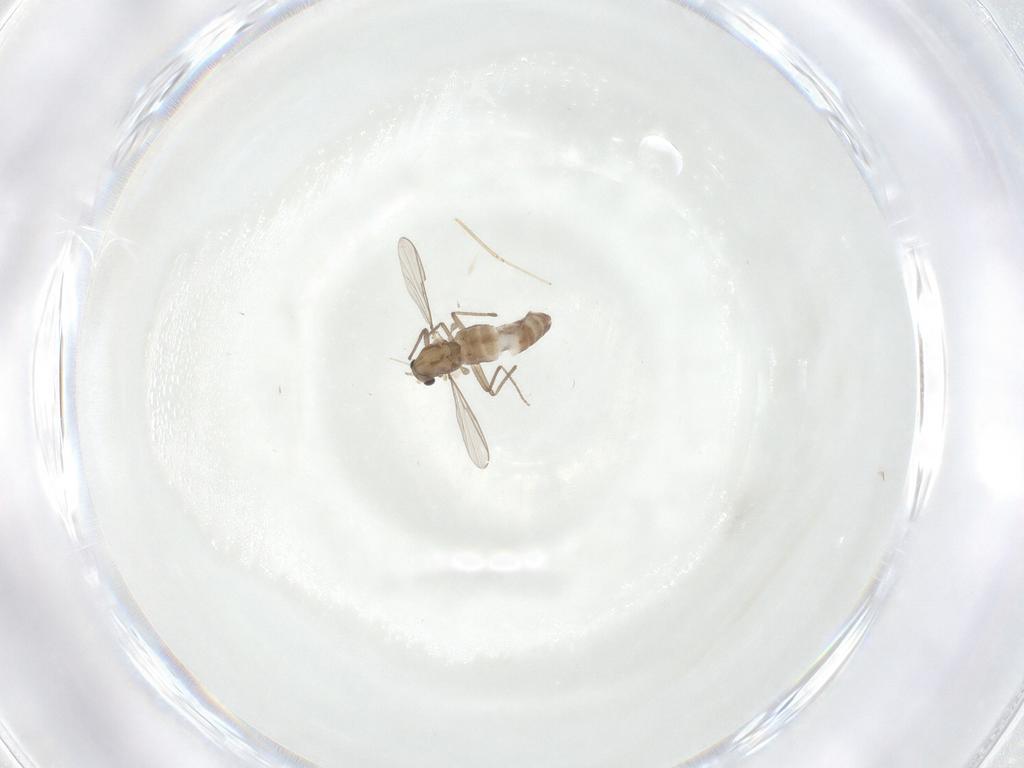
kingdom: Animalia
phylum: Arthropoda
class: Insecta
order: Diptera
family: Chironomidae
